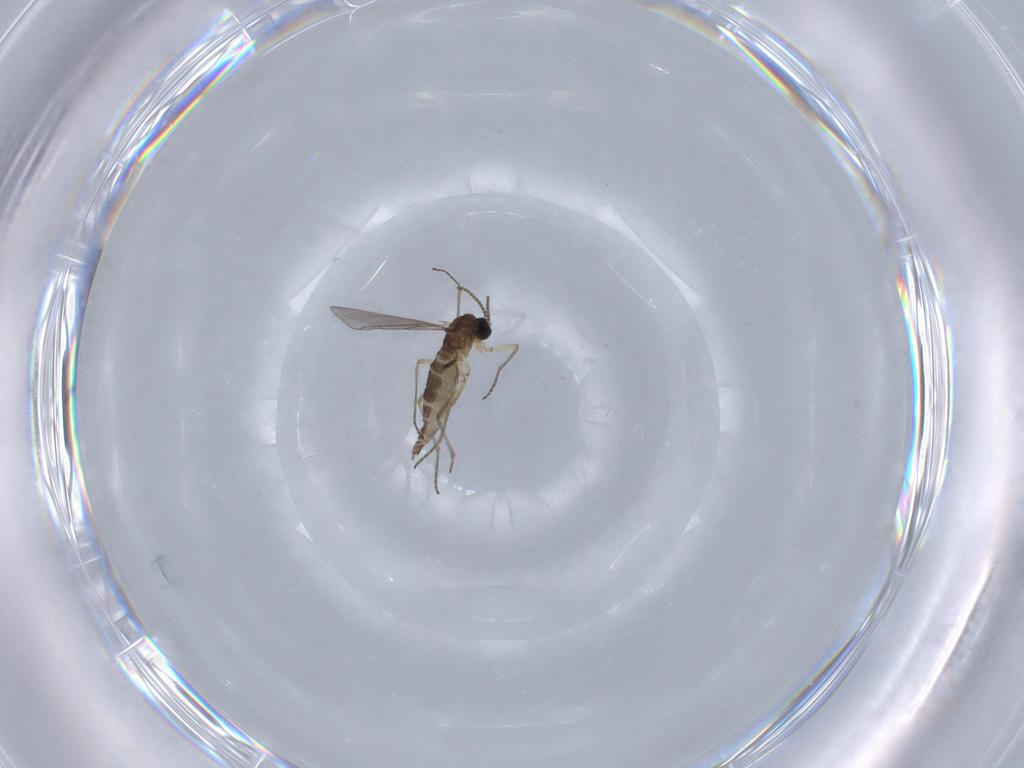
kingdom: Animalia
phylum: Arthropoda
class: Insecta
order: Diptera
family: Sciaridae
